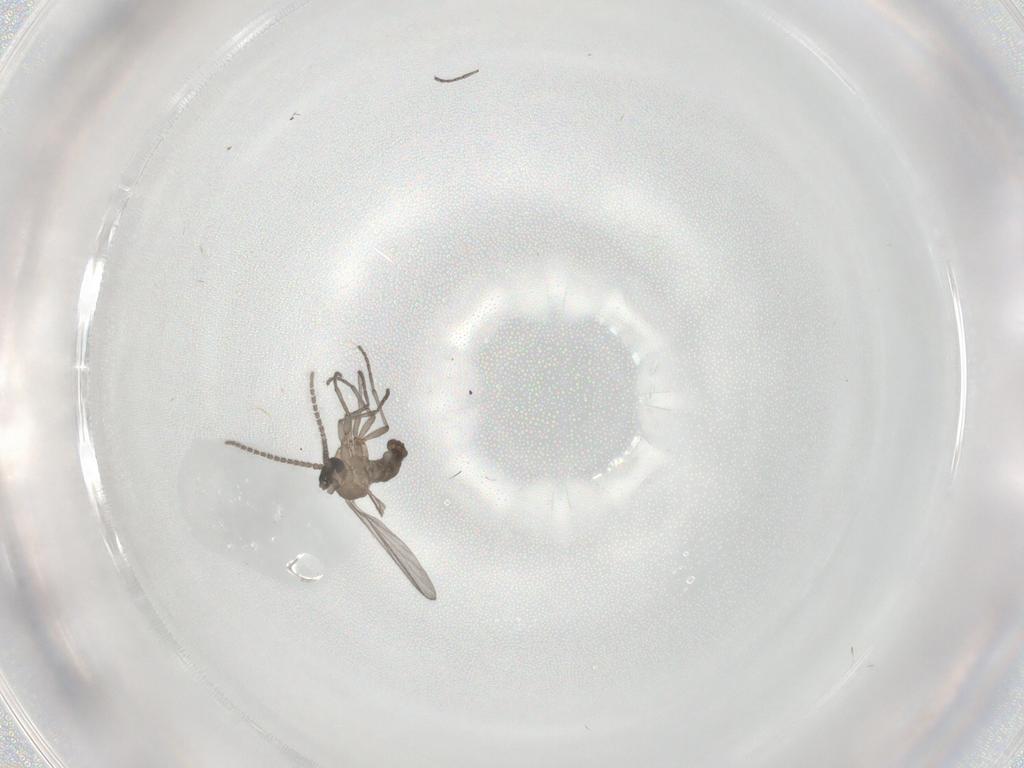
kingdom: Animalia
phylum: Arthropoda
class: Insecta
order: Diptera
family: Sciaridae
